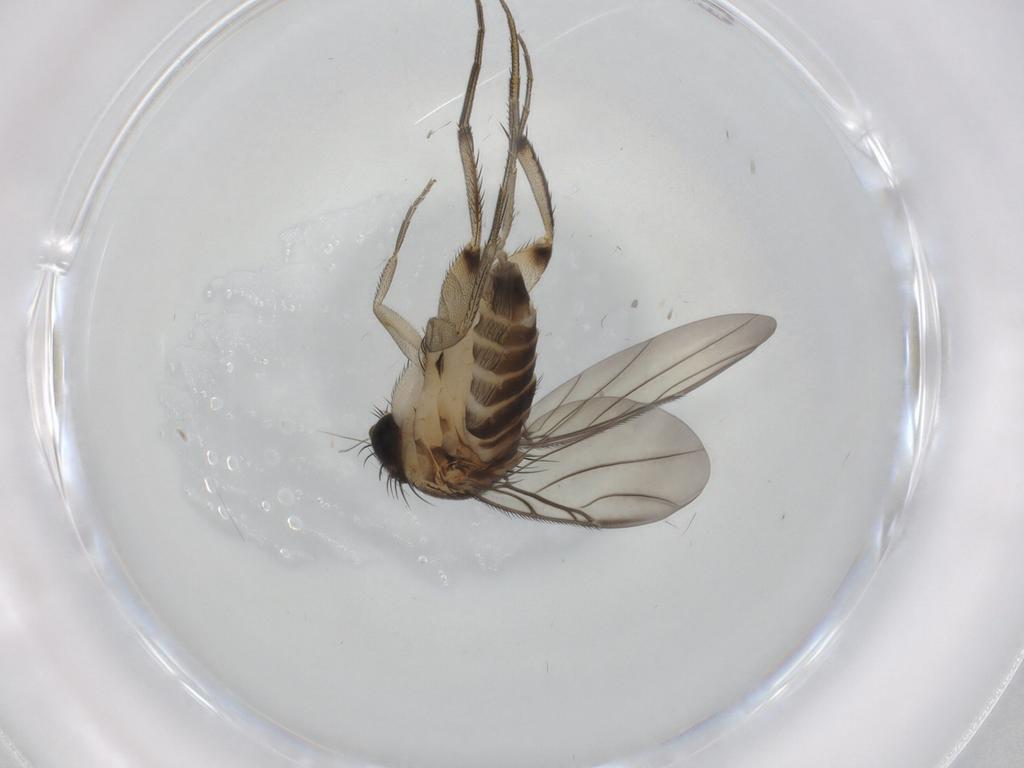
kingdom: Animalia
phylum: Arthropoda
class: Insecta
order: Diptera
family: Phoridae
